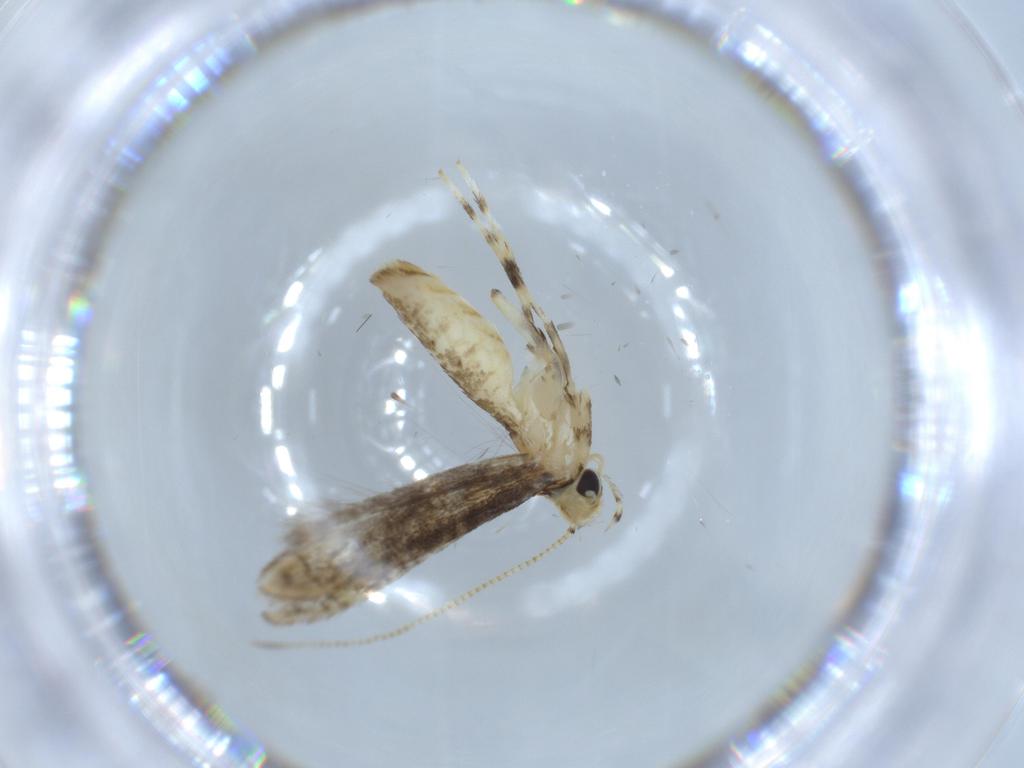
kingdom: Animalia
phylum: Arthropoda
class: Insecta
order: Lepidoptera
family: Gracillariidae
